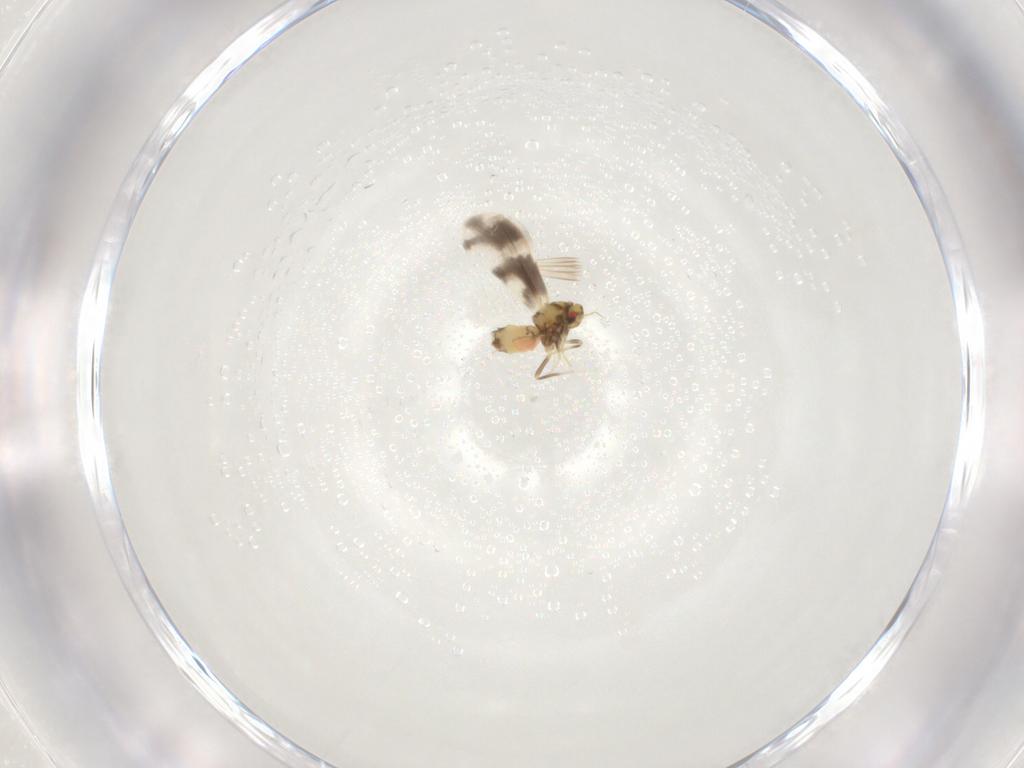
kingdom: Animalia
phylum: Arthropoda
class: Insecta
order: Hemiptera
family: Aleyrodidae
